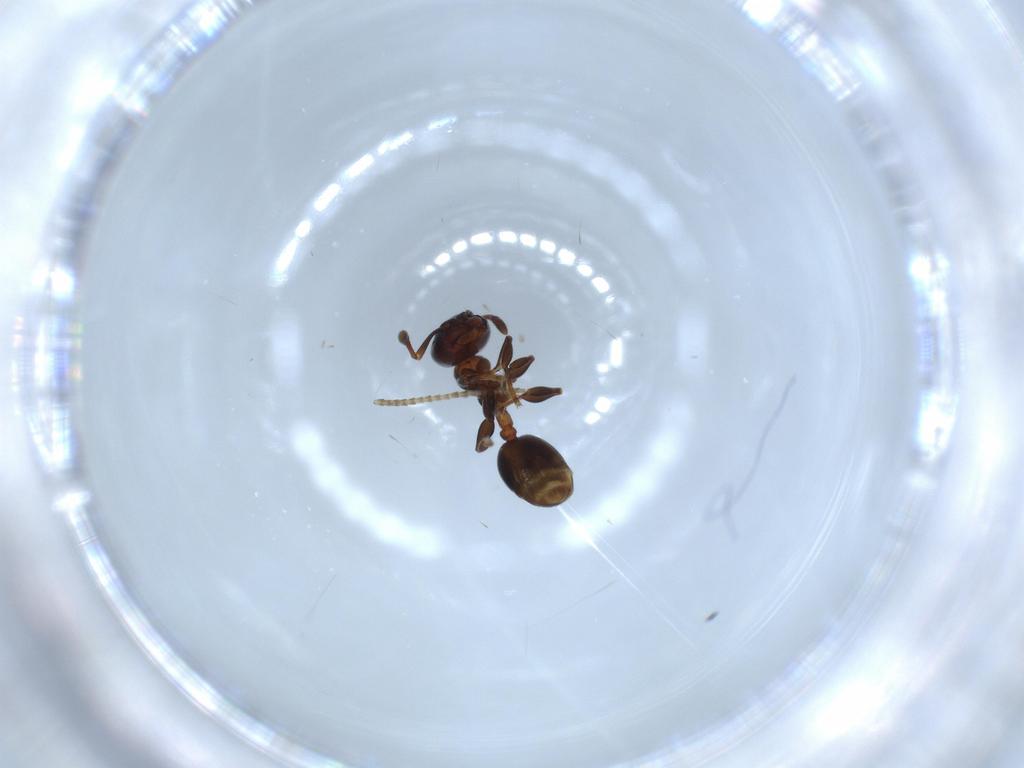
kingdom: Animalia
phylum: Arthropoda
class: Insecta
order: Hymenoptera
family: Formicidae
